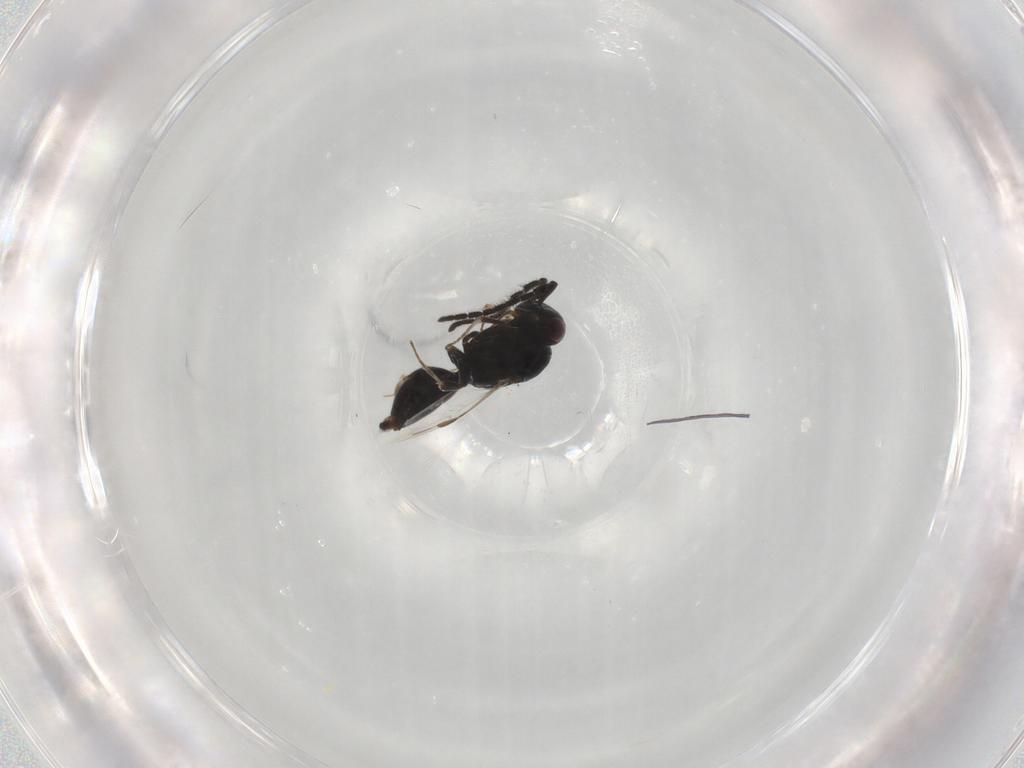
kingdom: Animalia
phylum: Arthropoda
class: Insecta
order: Hymenoptera
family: Megaspilidae
